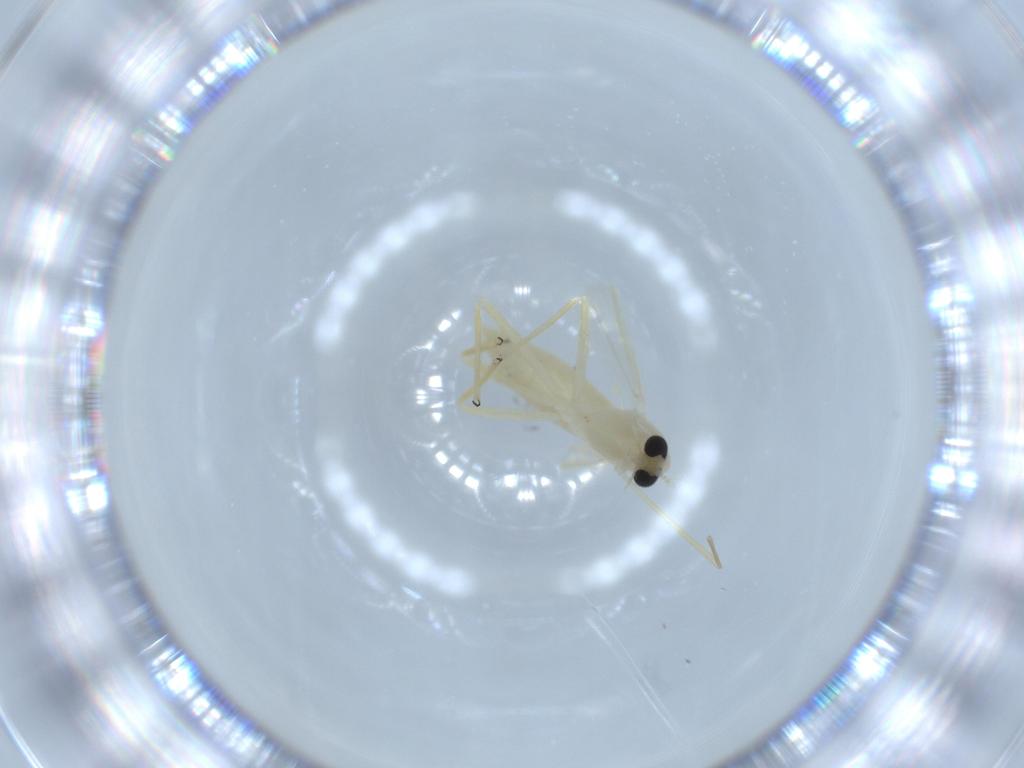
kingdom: Animalia
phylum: Arthropoda
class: Insecta
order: Diptera
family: Chironomidae
